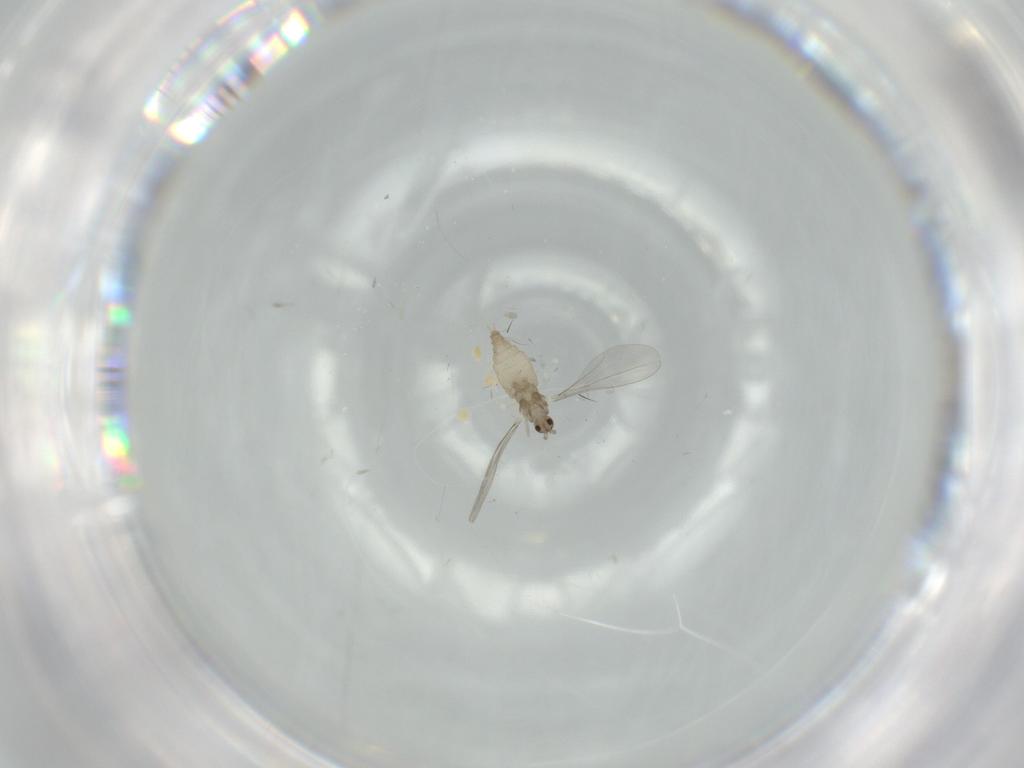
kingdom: Animalia
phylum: Arthropoda
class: Insecta
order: Diptera
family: Cecidomyiidae
